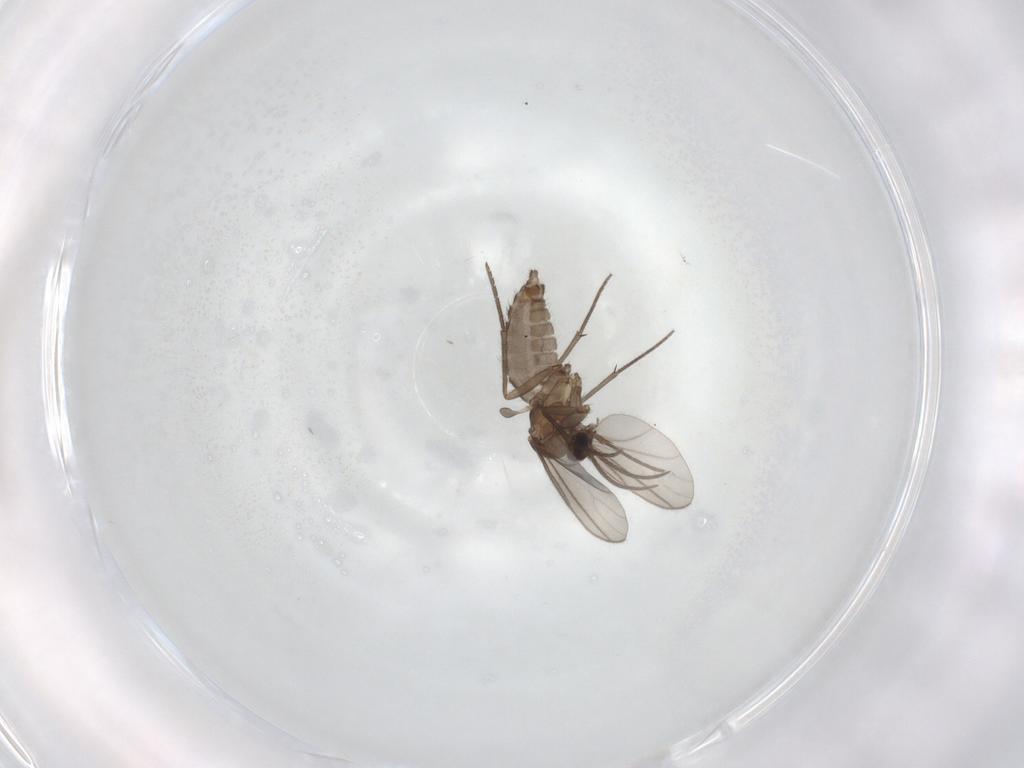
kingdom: Animalia
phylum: Arthropoda
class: Insecta
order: Diptera
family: Sciaridae
